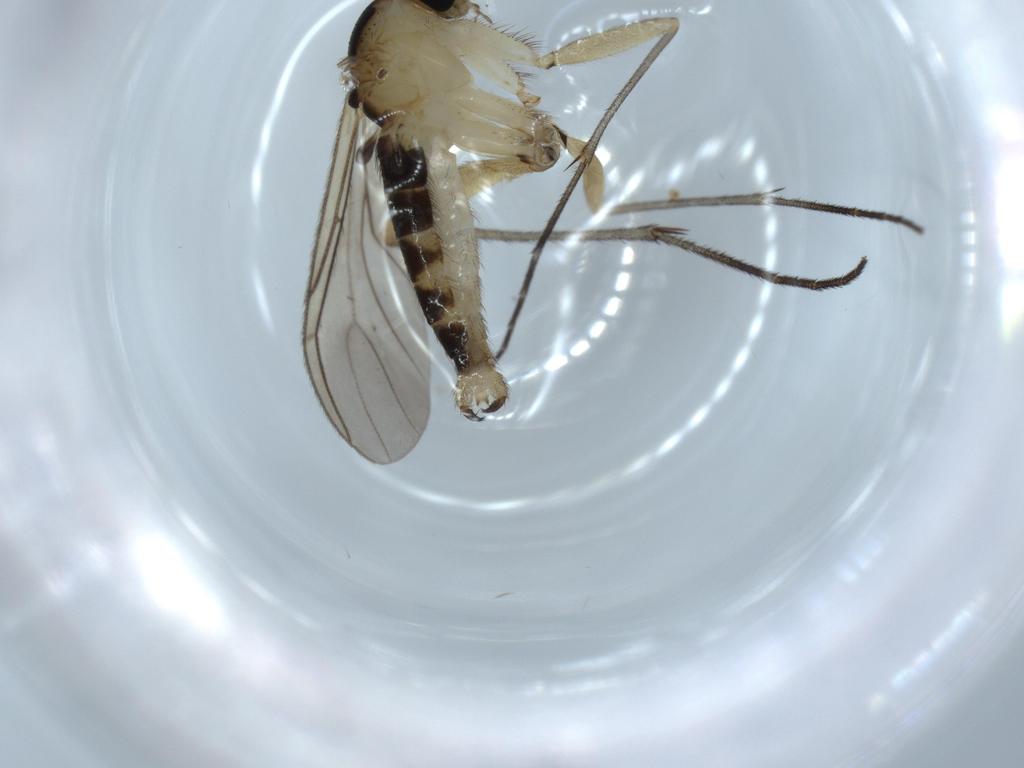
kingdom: Animalia
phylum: Arthropoda
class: Insecta
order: Diptera
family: Sciaridae
